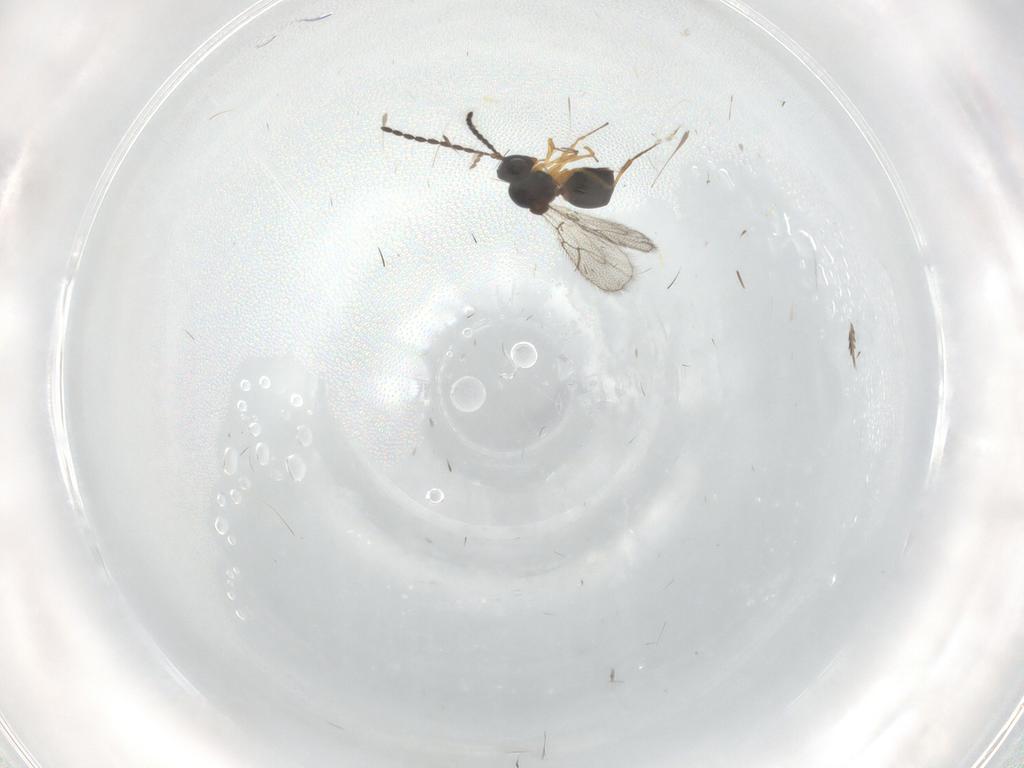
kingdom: Animalia
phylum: Arthropoda
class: Insecta
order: Hymenoptera
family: Figitidae
